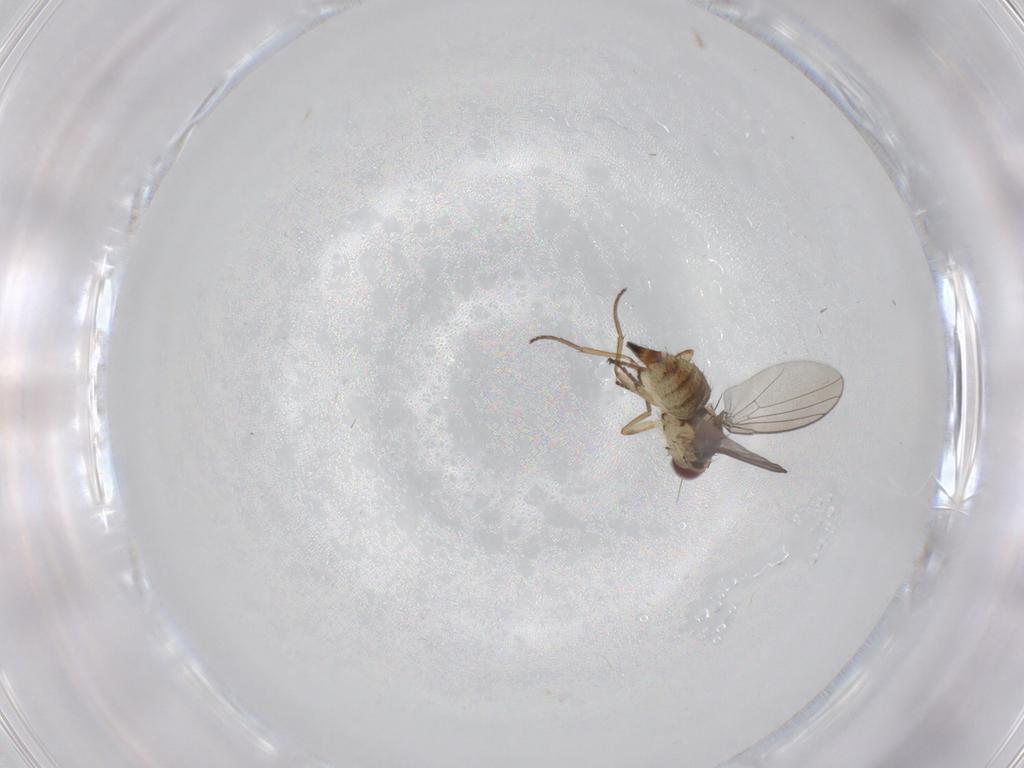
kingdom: Animalia
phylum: Arthropoda
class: Insecta
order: Diptera
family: Agromyzidae
